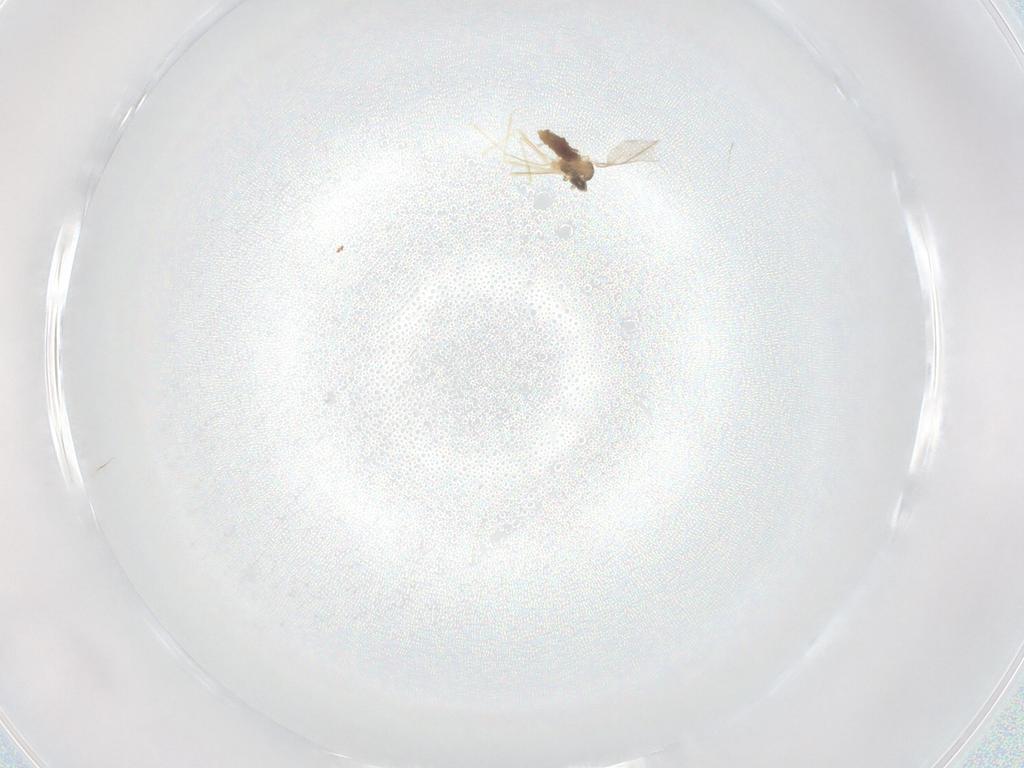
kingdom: Animalia
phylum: Arthropoda
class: Insecta
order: Diptera
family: Cecidomyiidae
